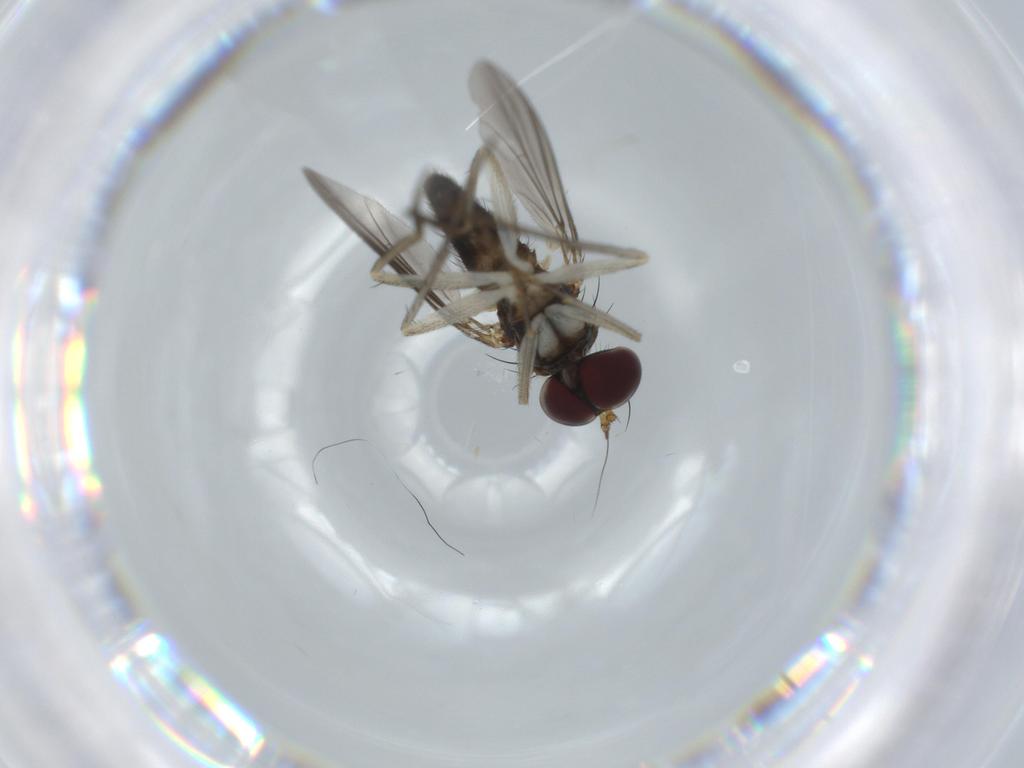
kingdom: Animalia
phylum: Arthropoda
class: Insecta
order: Diptera
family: Dolichopodidae
